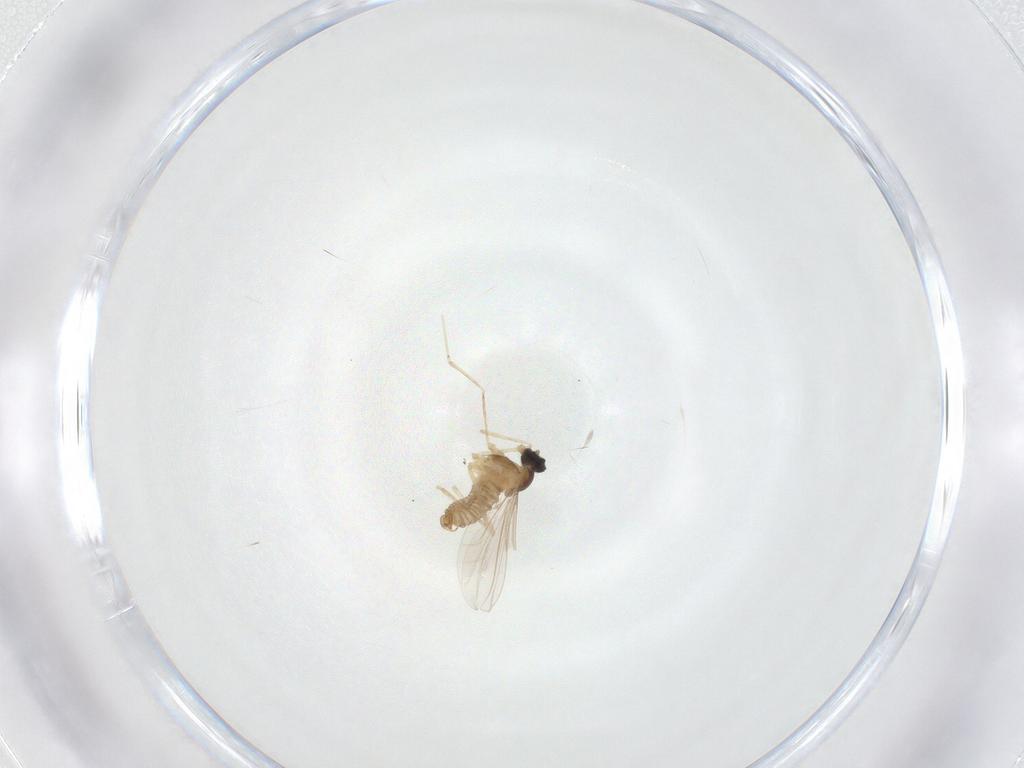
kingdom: Animalia
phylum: Arthropoda
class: Insecta
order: Diptera
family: Cecidomyiidae
